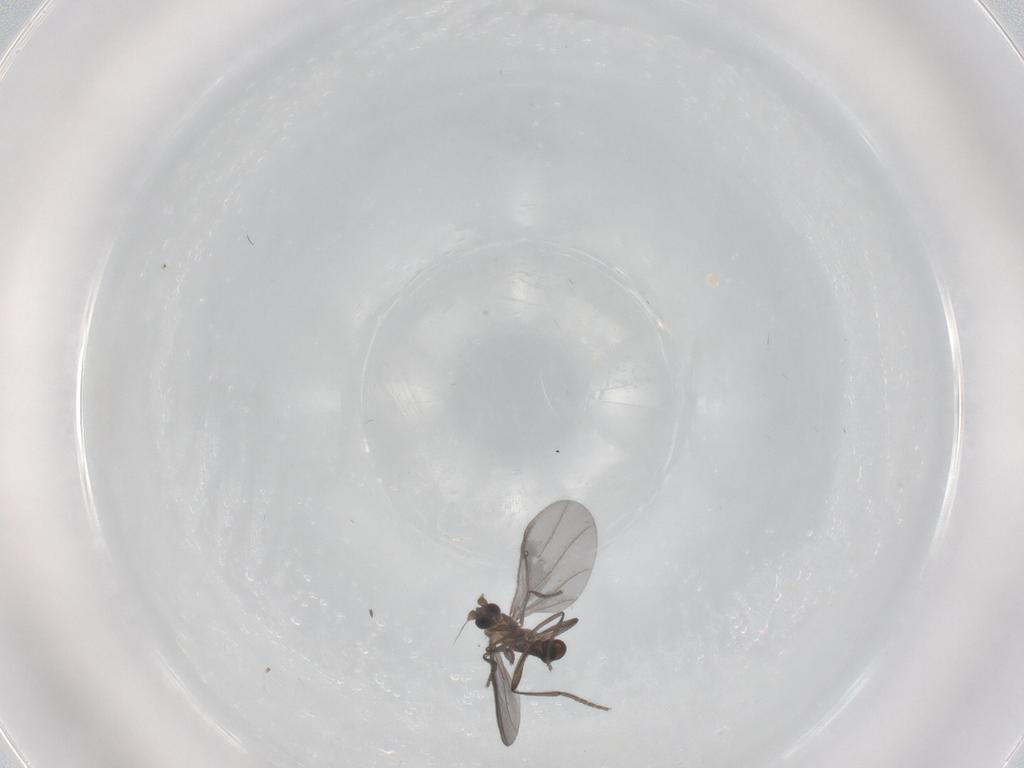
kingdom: Animalia
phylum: Arthropoda
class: Insecta
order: Diptera
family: Phoridae
